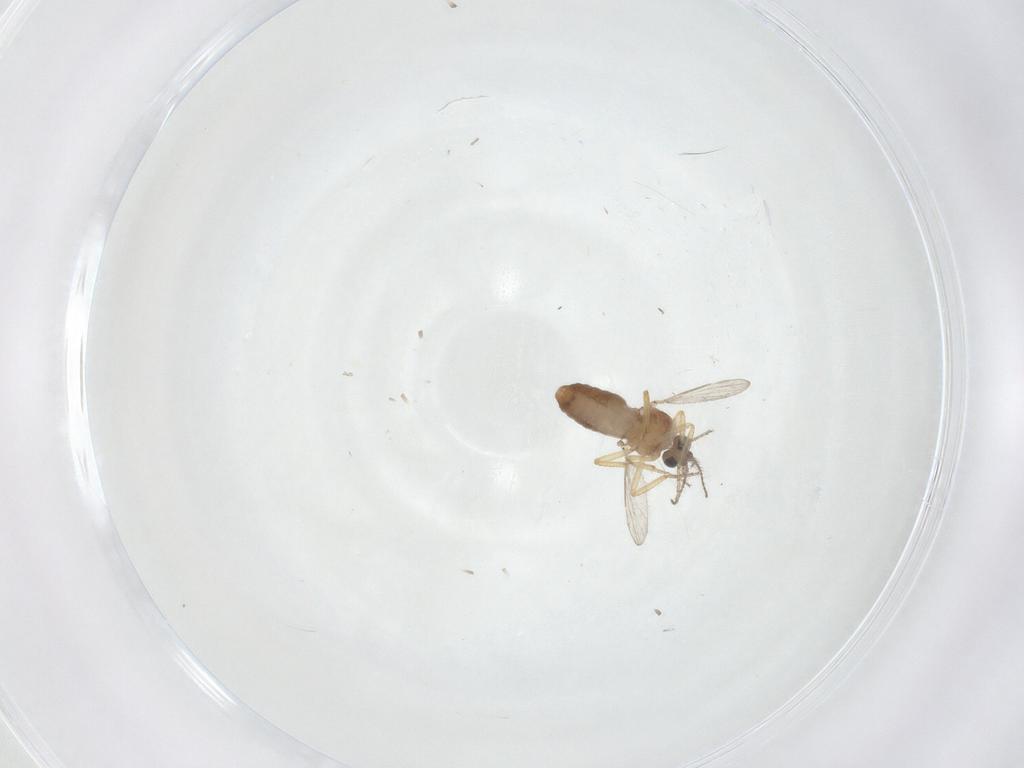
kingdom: Animalia
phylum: Arthropoda
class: Insecta
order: Diptera
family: Ceratopogonidae
